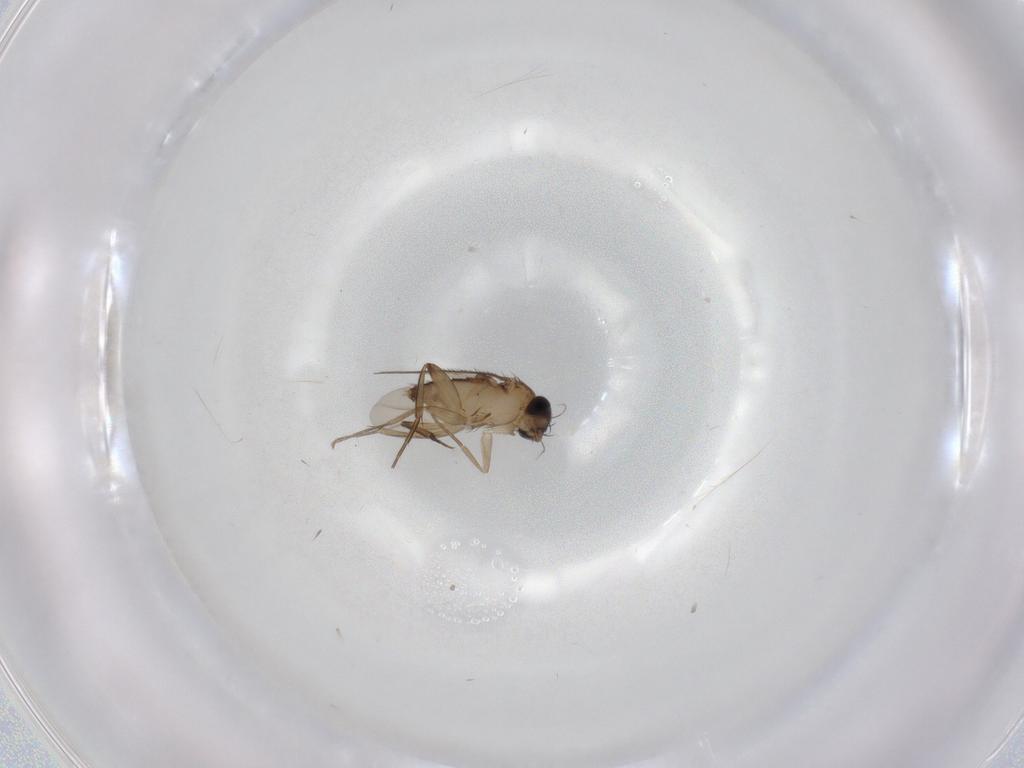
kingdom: Animalia
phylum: Arthropoda
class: Insecta
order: Diptera
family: Phoridae
